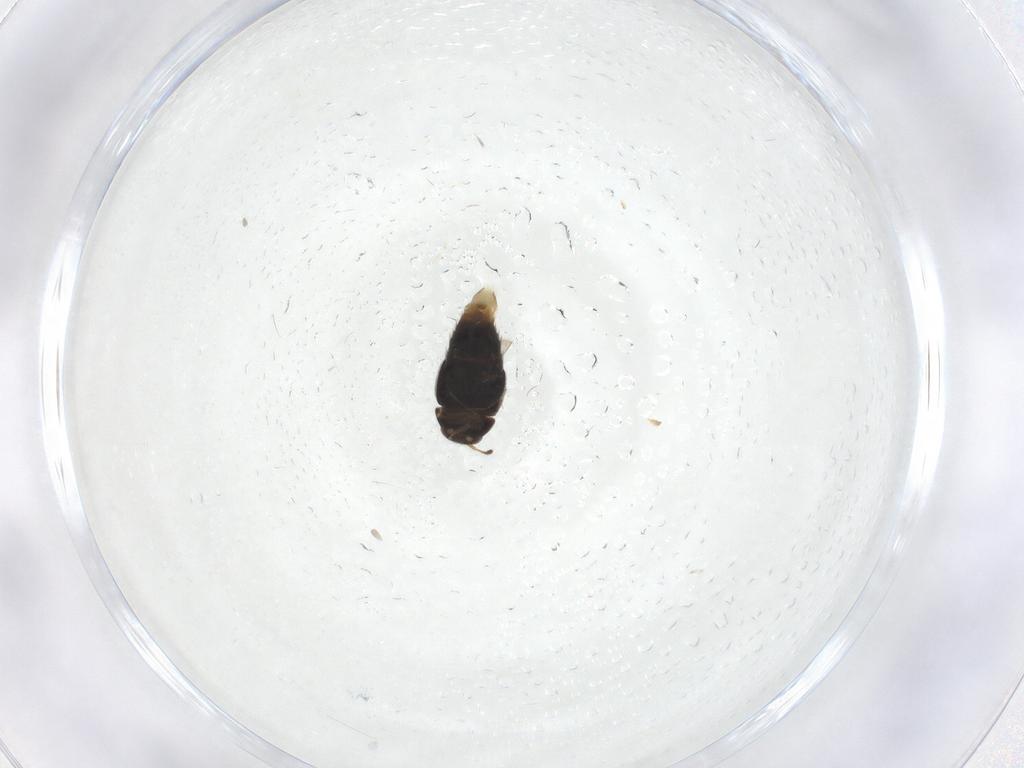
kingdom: Animalia
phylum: Arthropoda
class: Insecta
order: Coleoptera
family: Staphylinidae
